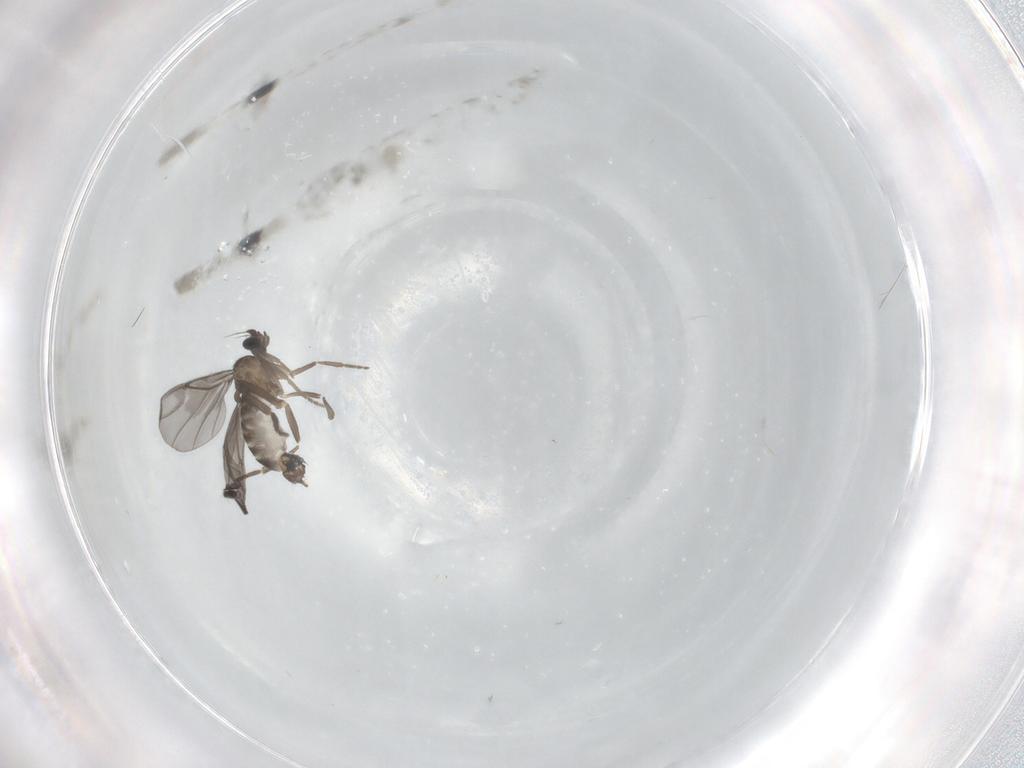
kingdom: Animalia
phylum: Arthropoda
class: Insecta
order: Diptera
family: Phoridae
